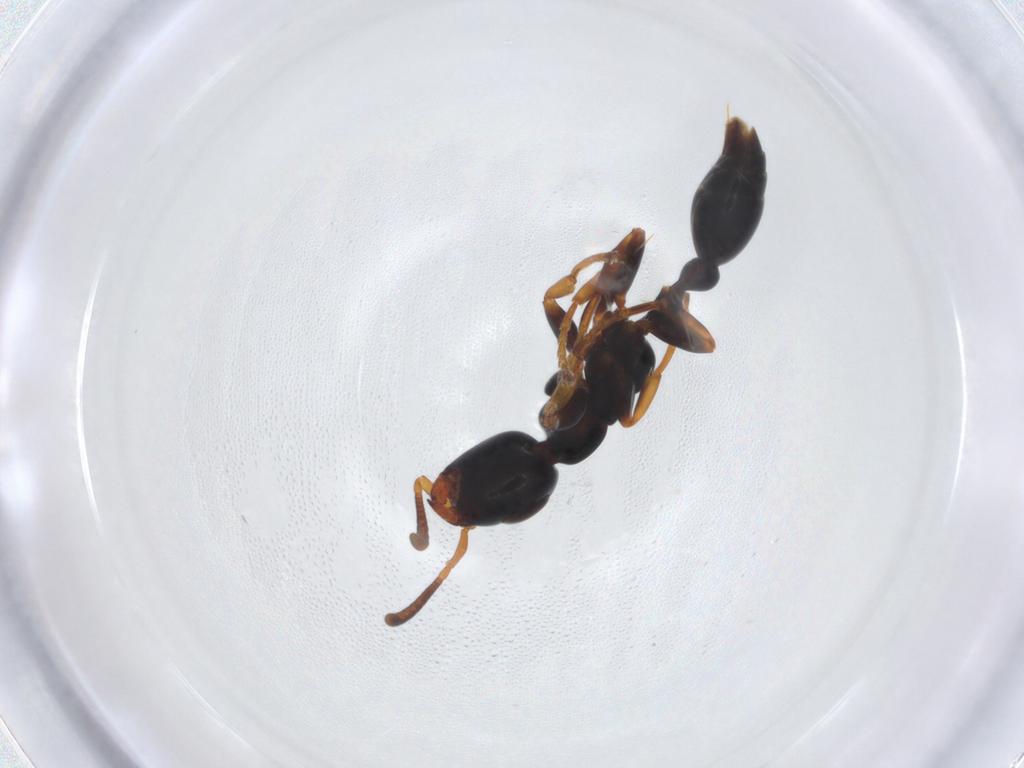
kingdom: Animalia
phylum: Arthropoda
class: Insecta
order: Hymenoptera
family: Formicidae
